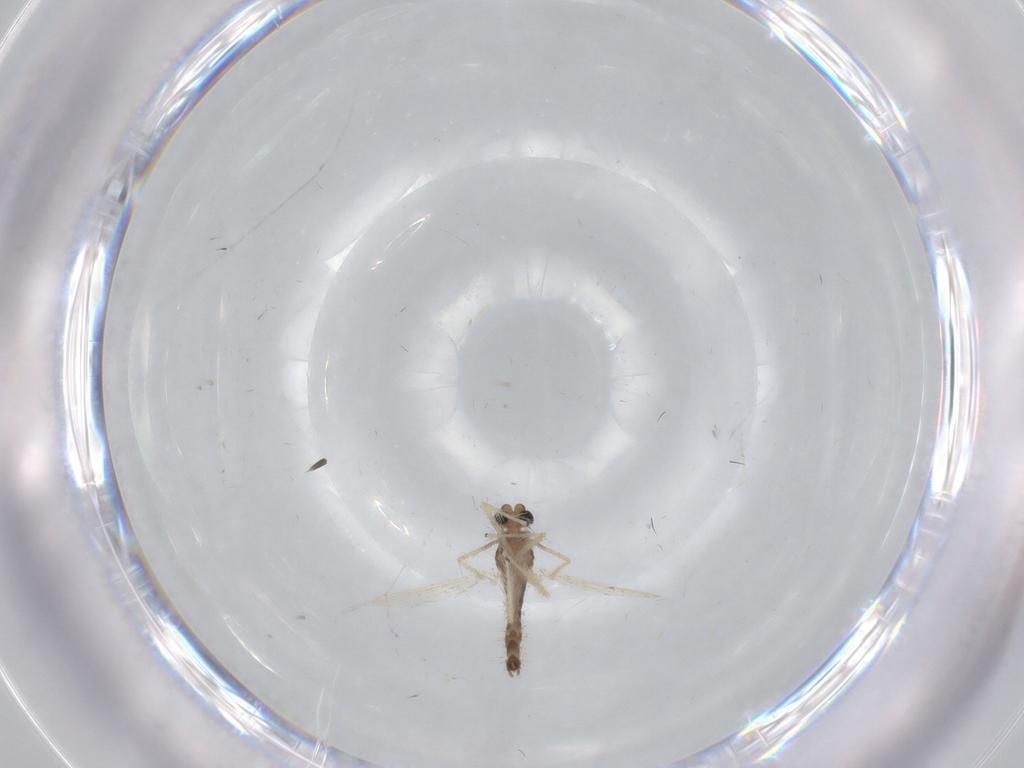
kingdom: Animalia
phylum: Arthropoda
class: Insecta
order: Diptera
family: Chironomidae
